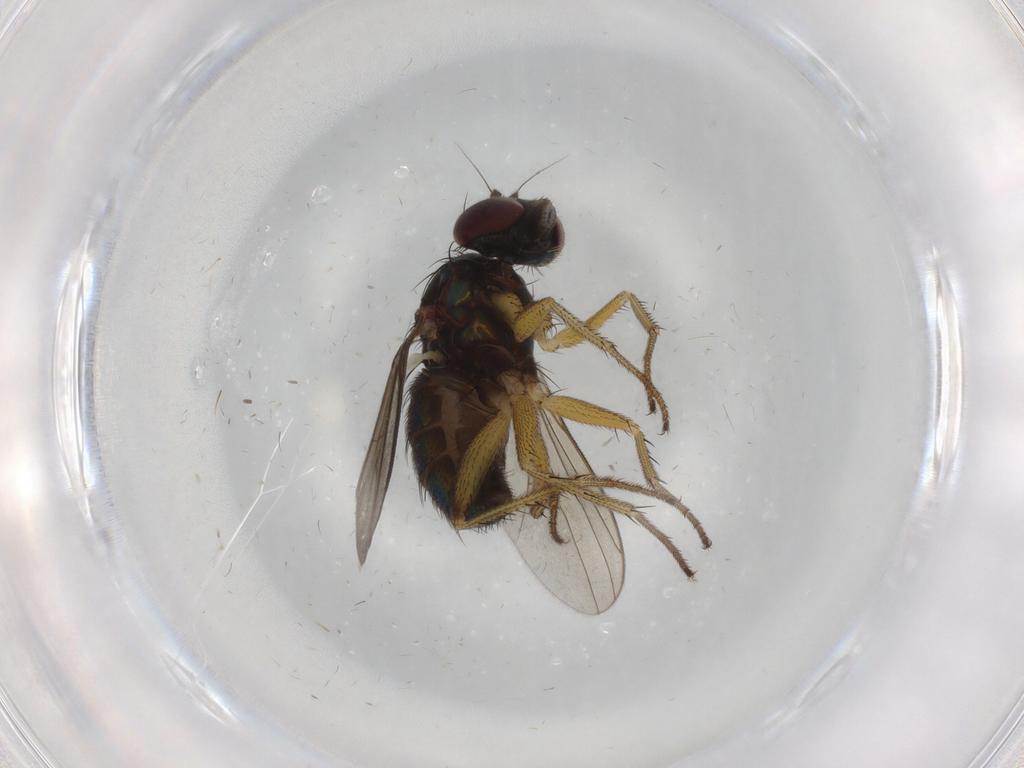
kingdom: Animalia
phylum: Arthropoda
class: Insecta
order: Diptera
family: Dolichopodidae
